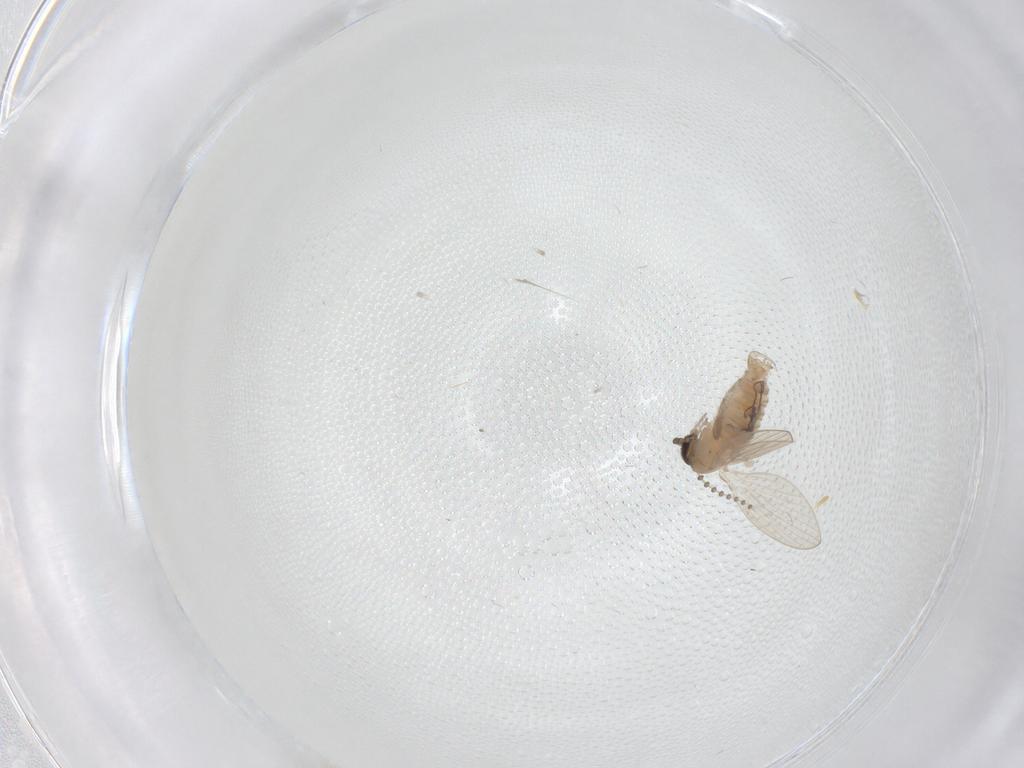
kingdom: Animalia
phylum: Arthropoda
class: Insecta
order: Diptera
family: Psychodidae
